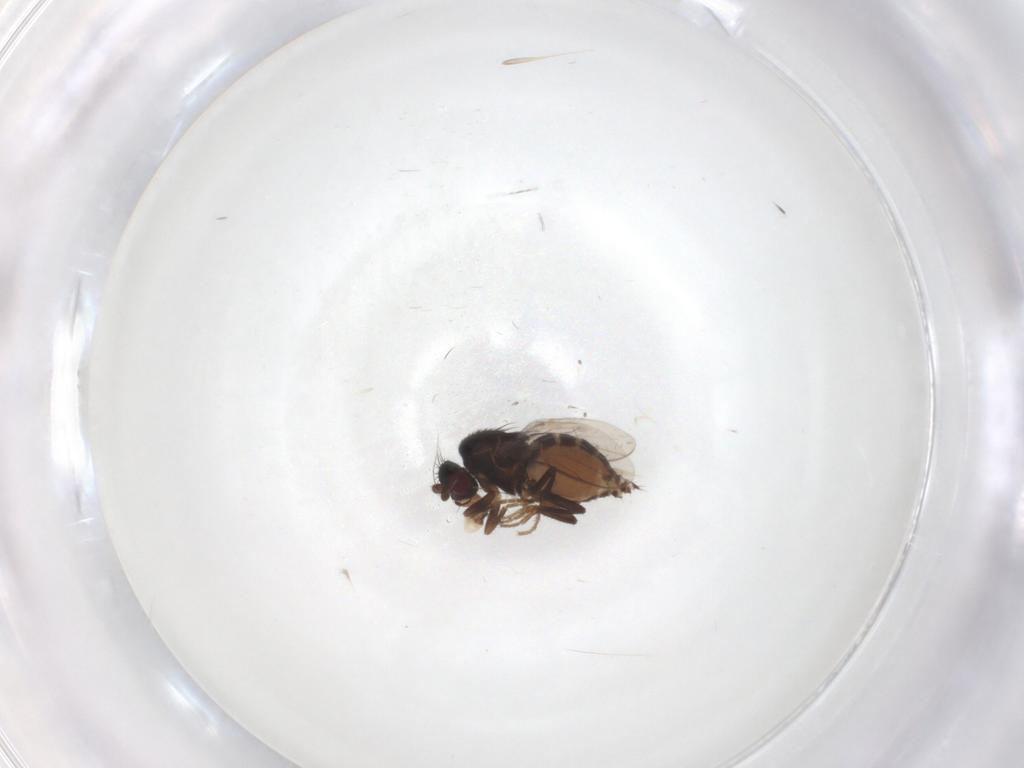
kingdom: Animalia
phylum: Arthropoda
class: Insecta
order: Diptera
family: Sphaeroceridae
